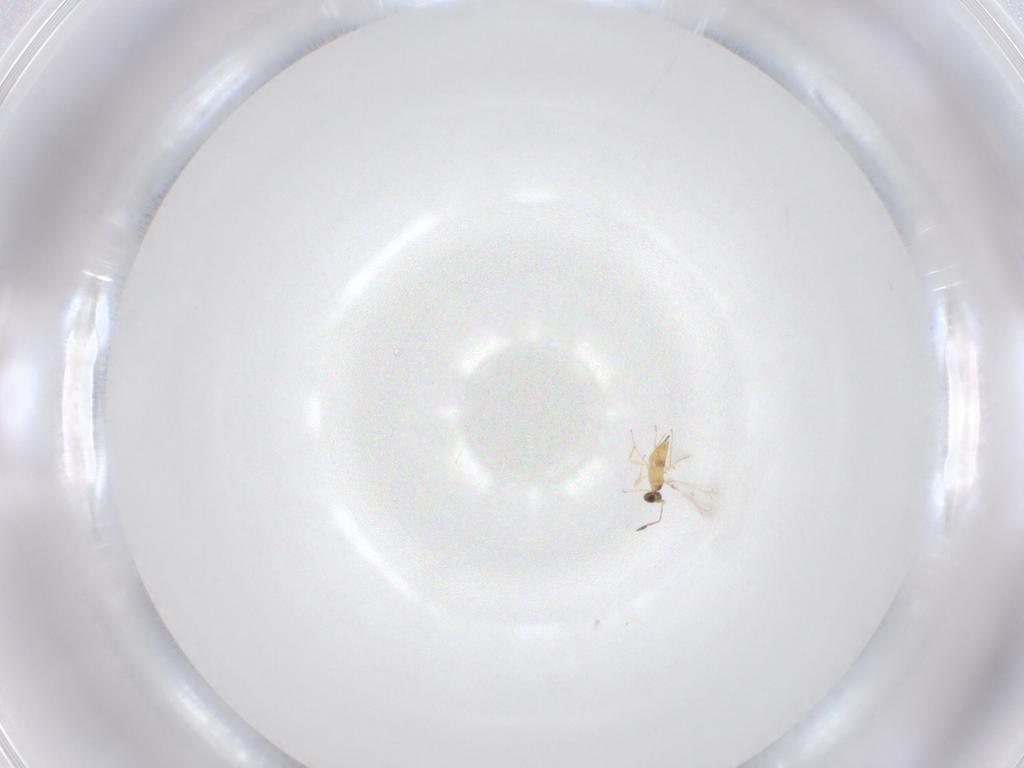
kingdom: Animalia
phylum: Arthropoda
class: Insecta
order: Hymenoptera
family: Mymaridae
